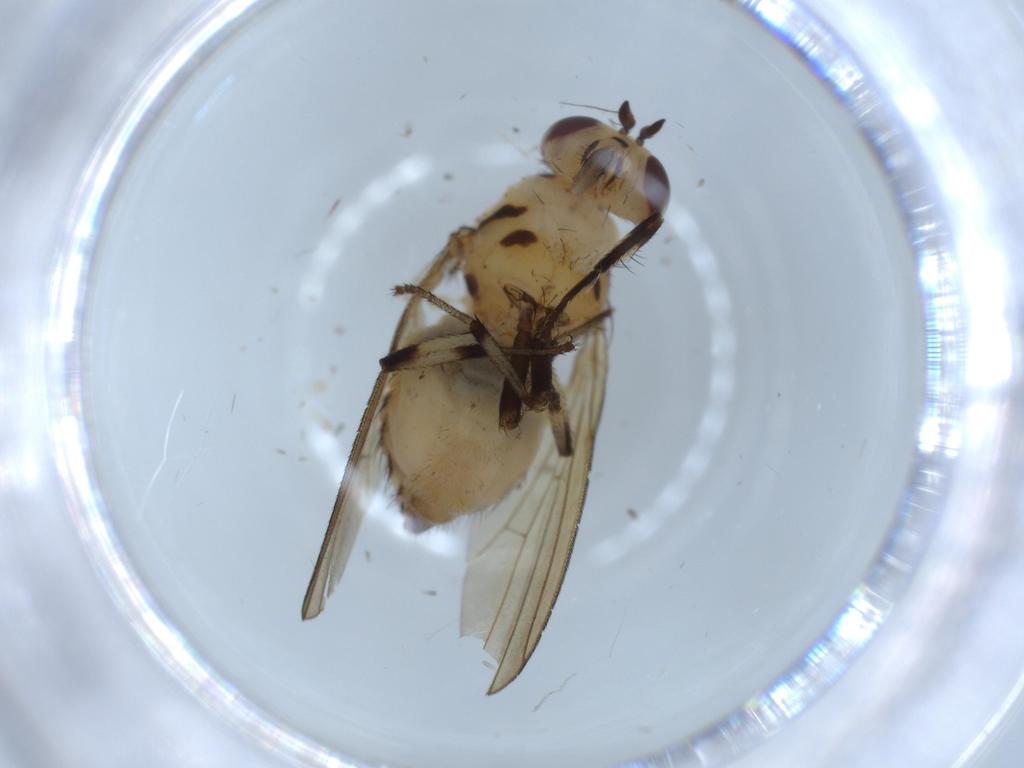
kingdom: Animalia
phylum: Arthropoda
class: Insecta
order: Diptera
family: Lauxaniidae
